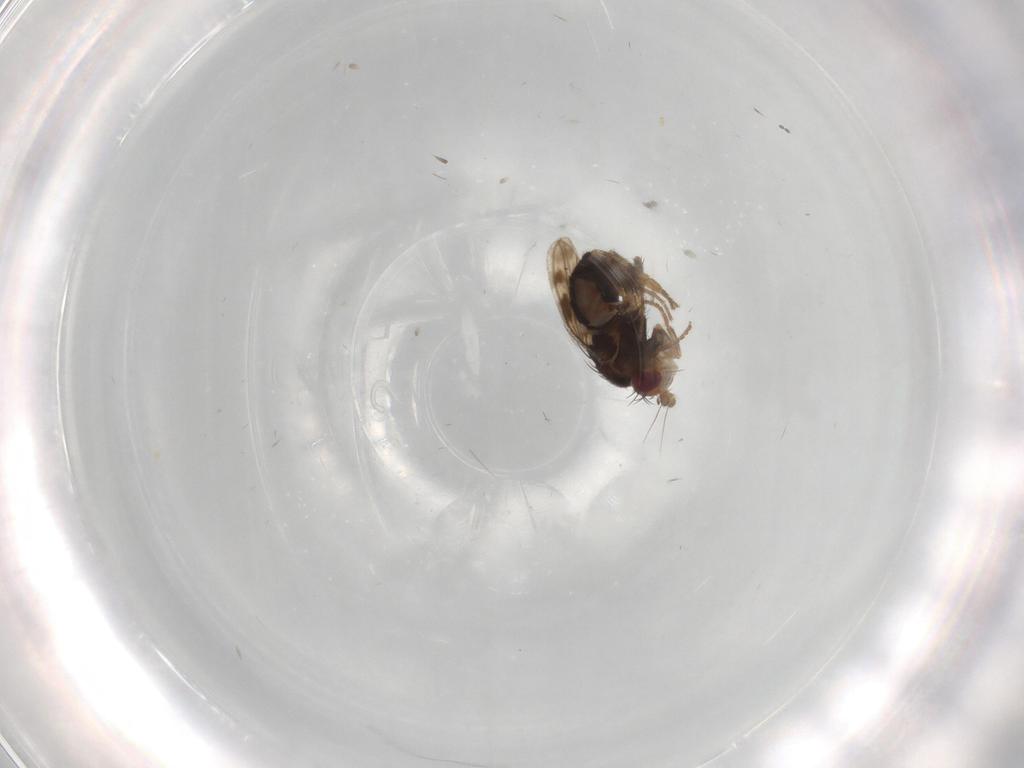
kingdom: Animalia
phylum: Arthropoda
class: Insecta
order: Diptera
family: Sphaeroceridae
